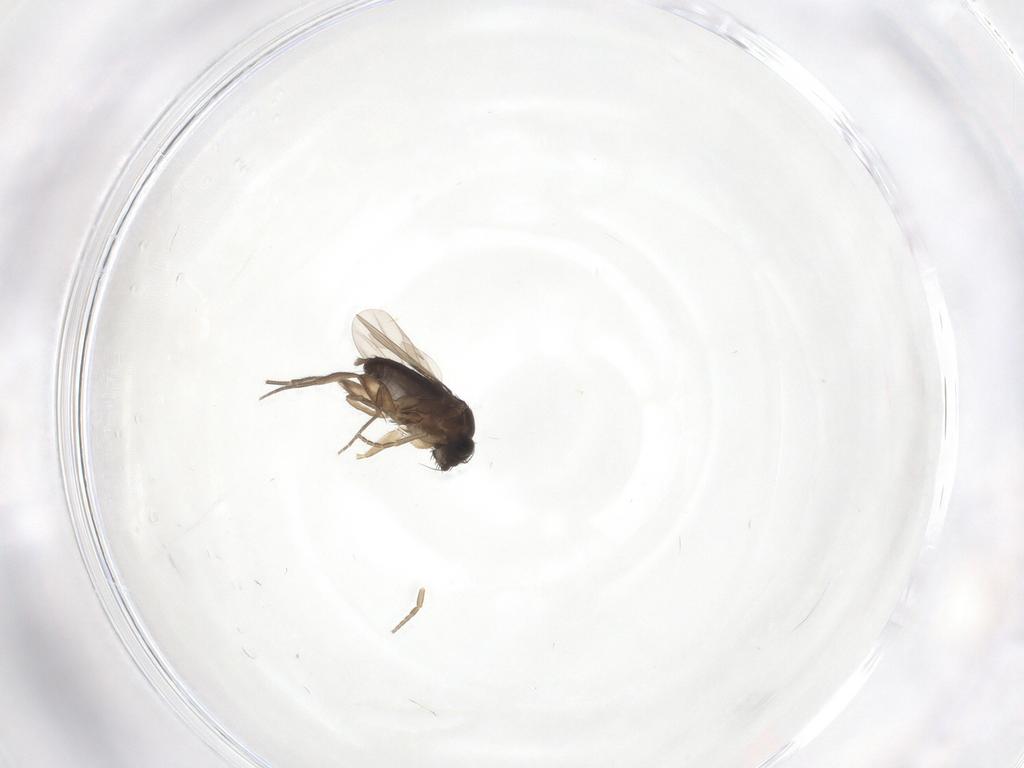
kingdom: Animalia
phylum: Arthropoda
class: Insecta
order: Diptera
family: Phoridae
